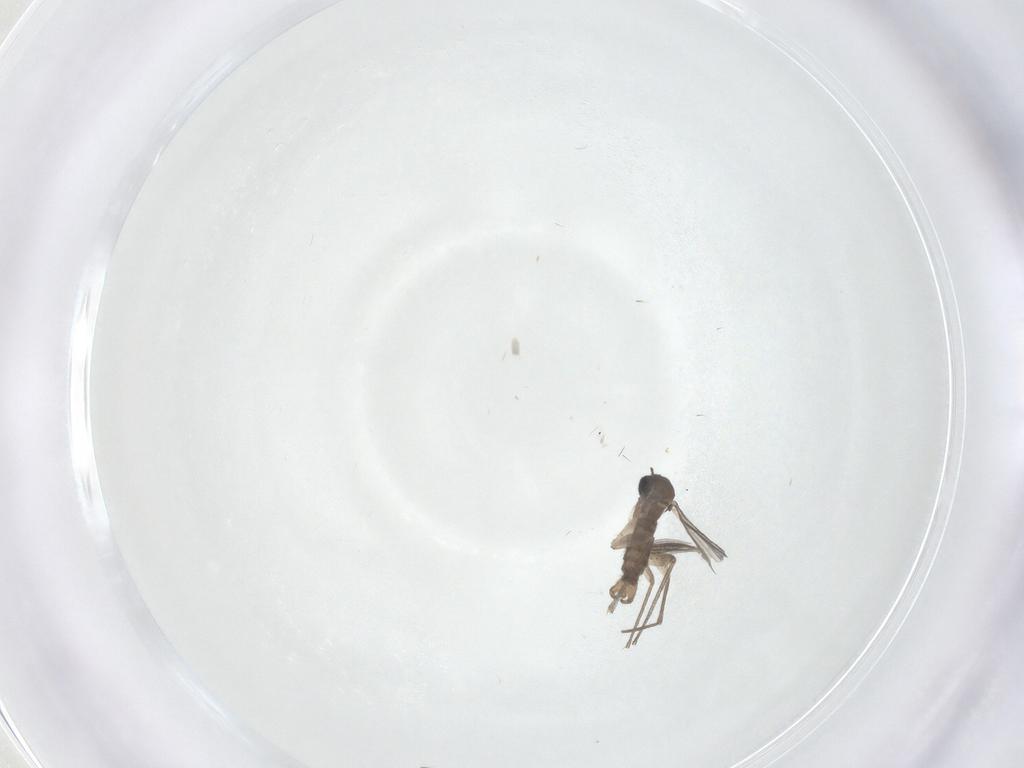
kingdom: Animalia
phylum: Arthropoda
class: Insecta
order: Diptera
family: Sciaridae
